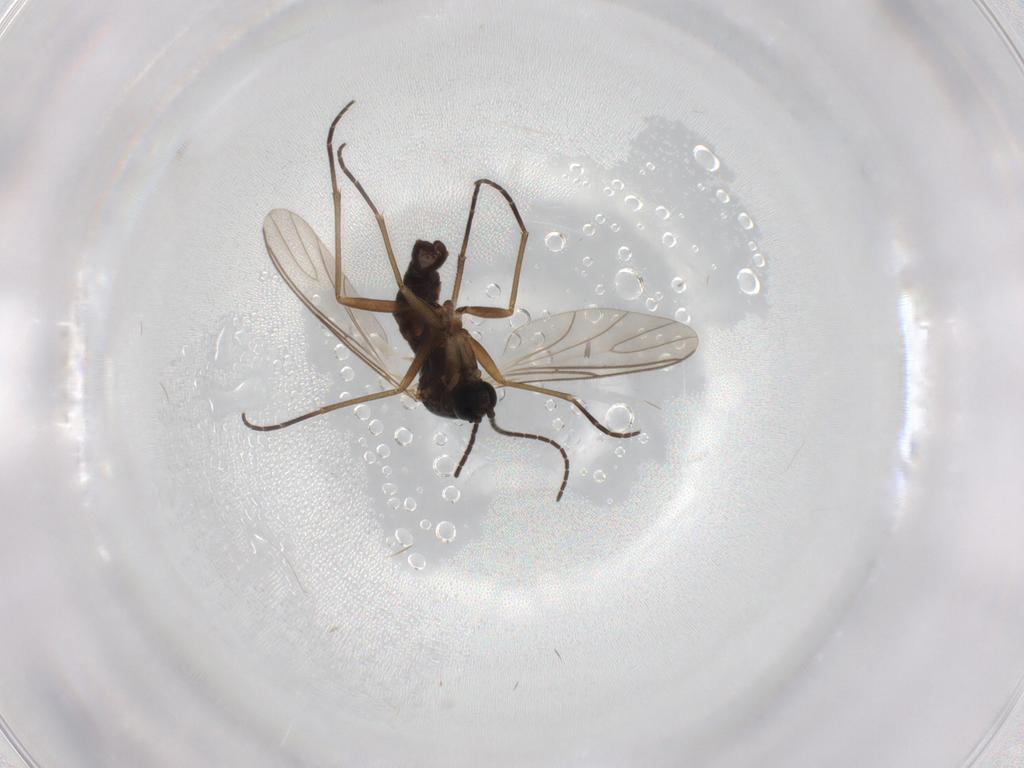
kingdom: Animalia
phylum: Arthropoda
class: Insecta
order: Diptera
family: Sciaridae
